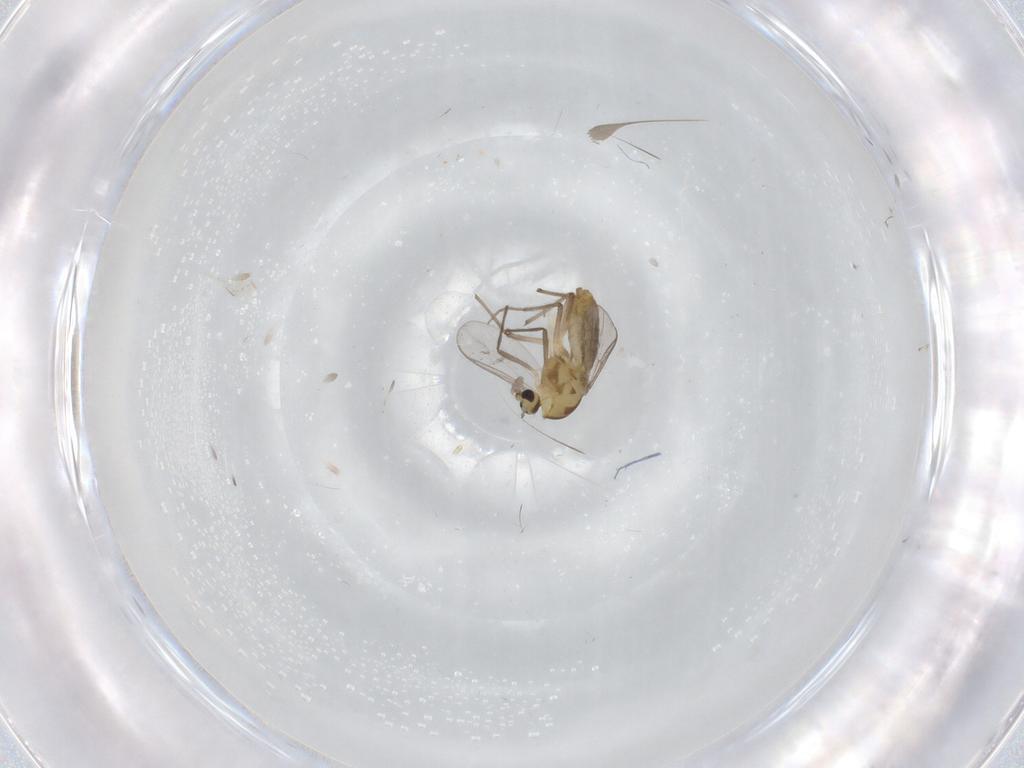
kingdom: Animalia
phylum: Arthropoda
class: Insecta
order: Diptera
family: Chironomidae
